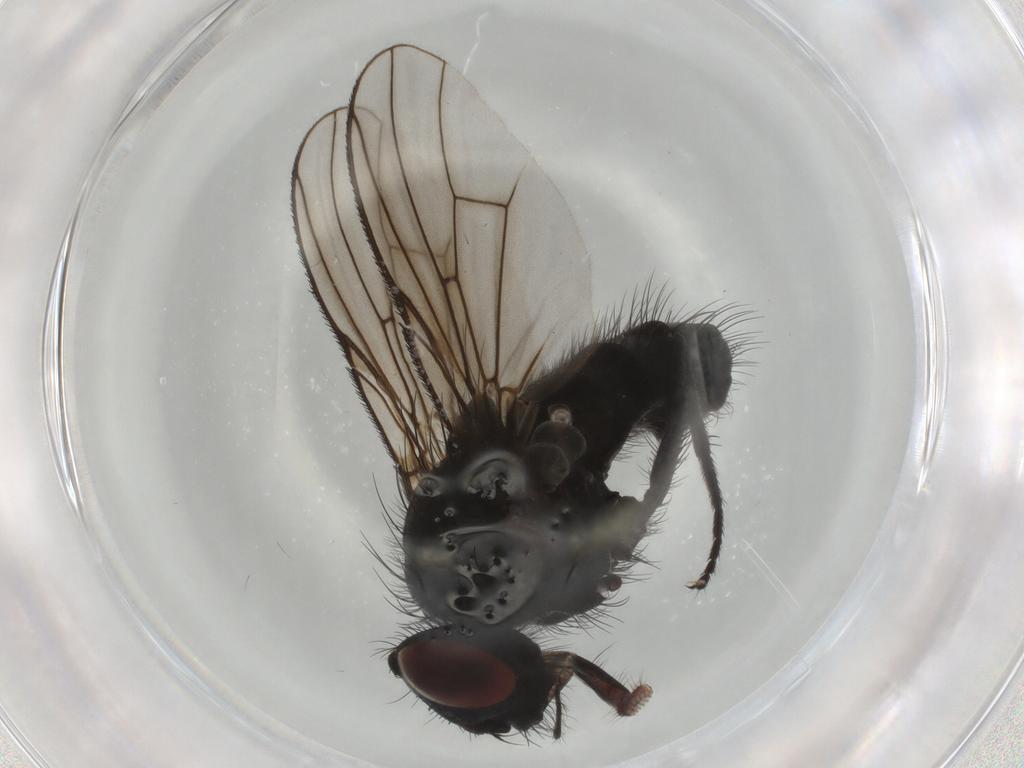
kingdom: Animalia
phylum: Arthropoda
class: Insecta
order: Diptera
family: Muscidae
